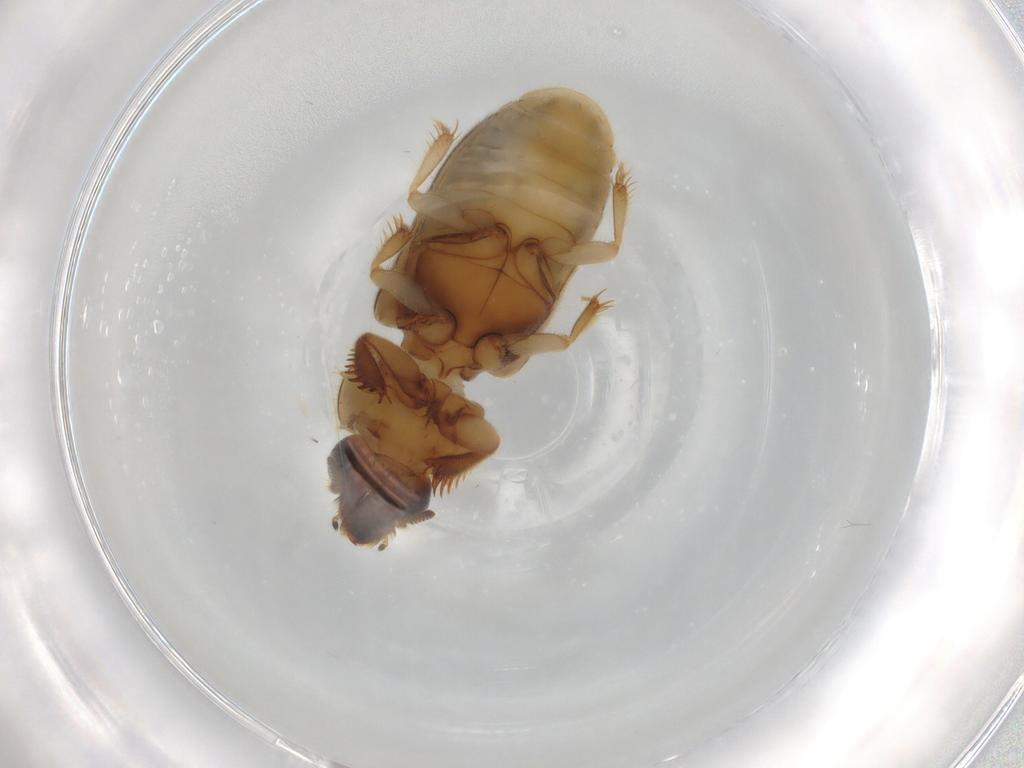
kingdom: Animalia
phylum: Arthropoda
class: Insecta
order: Coleoptera
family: Heteroceridae
